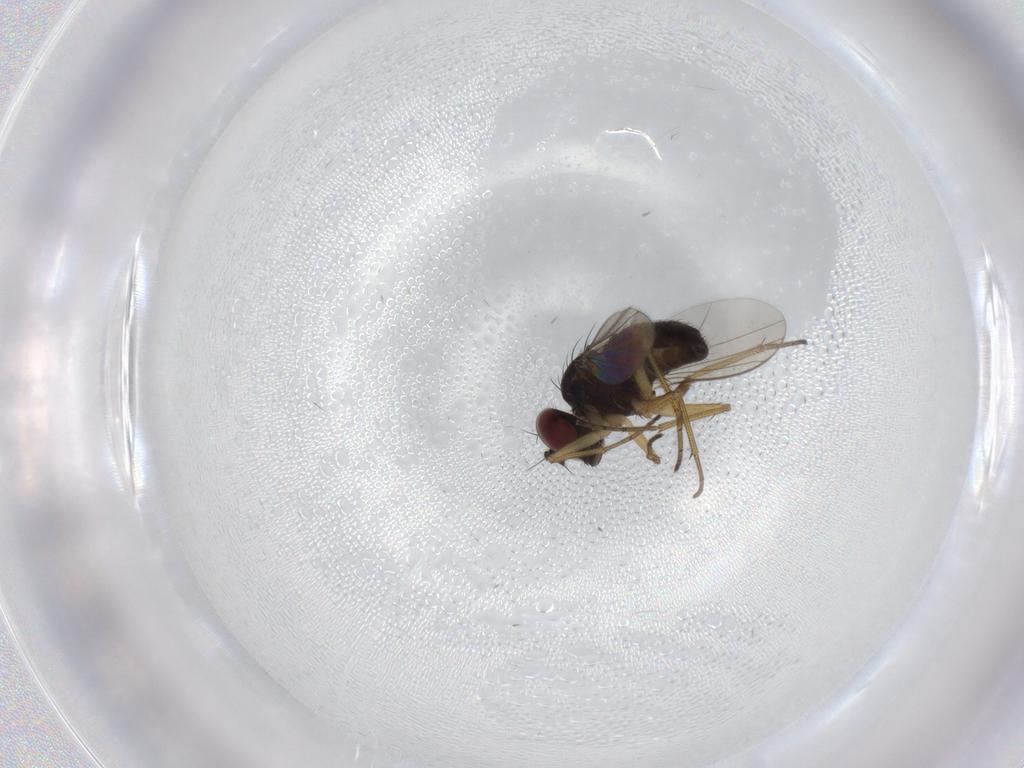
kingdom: Animalia
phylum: Arthropoda
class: Insecta
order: Diptera
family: Dolichopodidae
